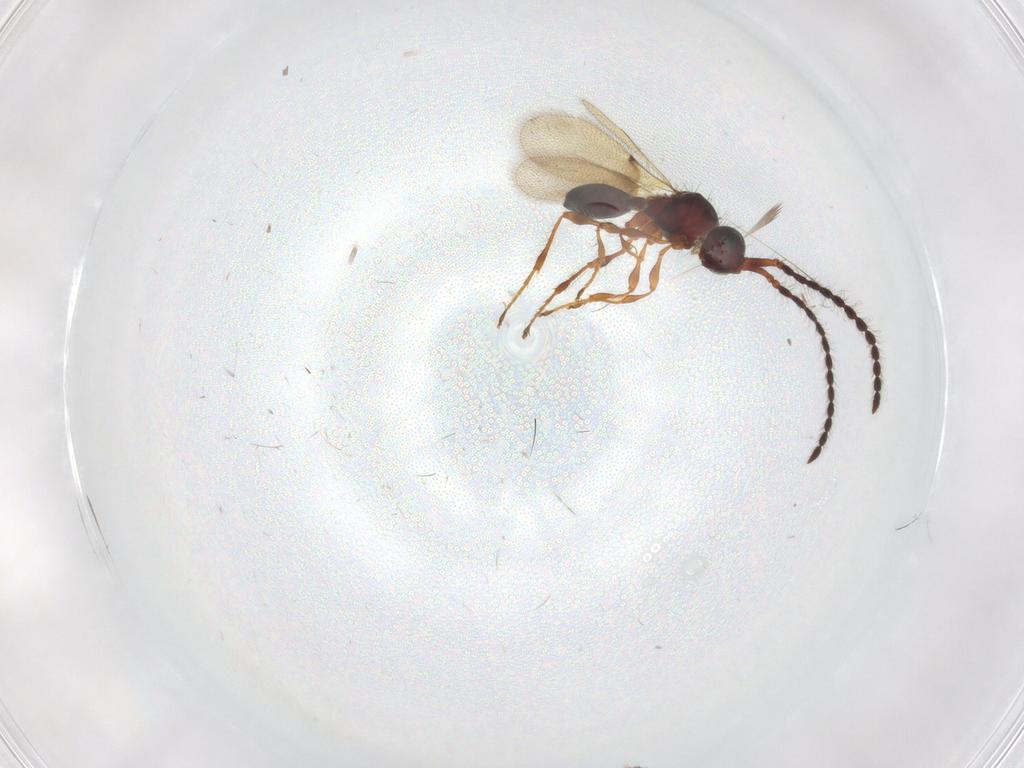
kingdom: Animalia
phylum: Arthropoda
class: Insecta
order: Hymenoptera
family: Diapriidae
